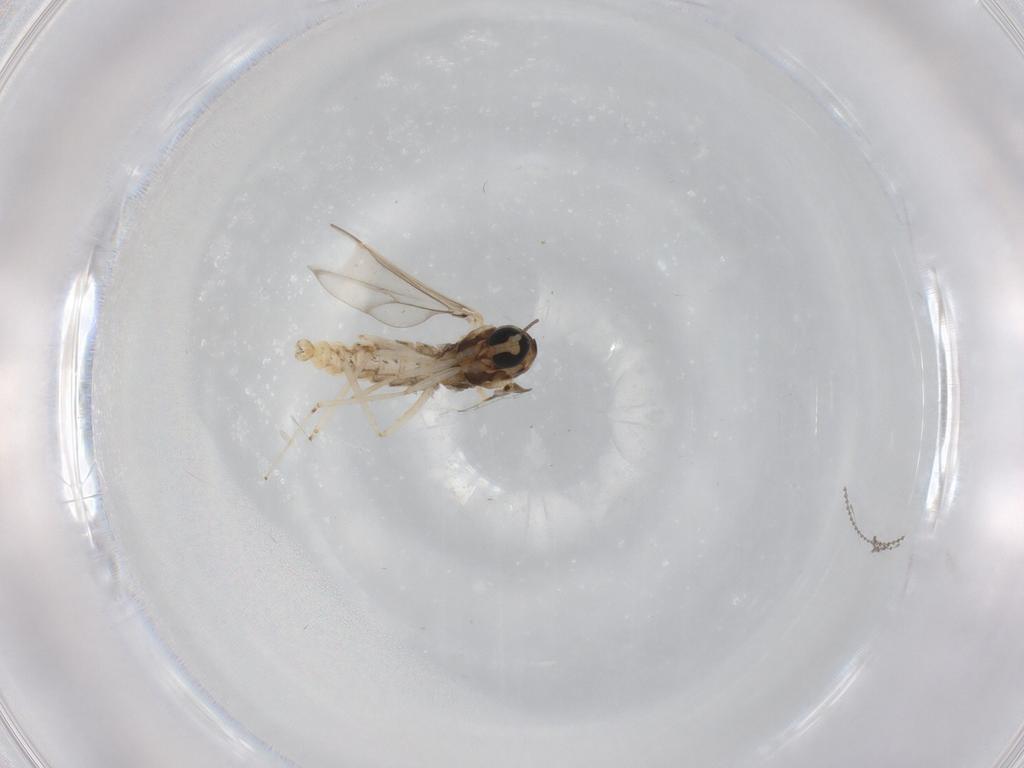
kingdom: Animalia
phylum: Arthropoda
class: Insecta
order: Diptera
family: Cecidomyiidae
